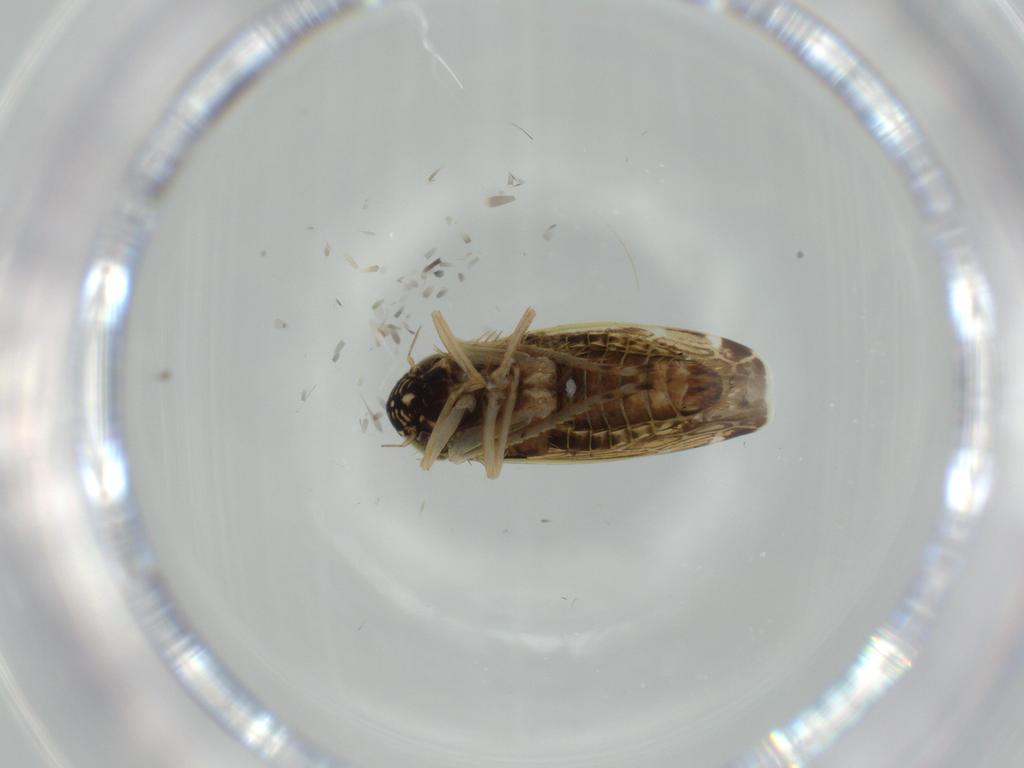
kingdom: Animalia
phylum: Arthropoda
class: Insecta
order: Hemiptera
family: Cicadellidae
